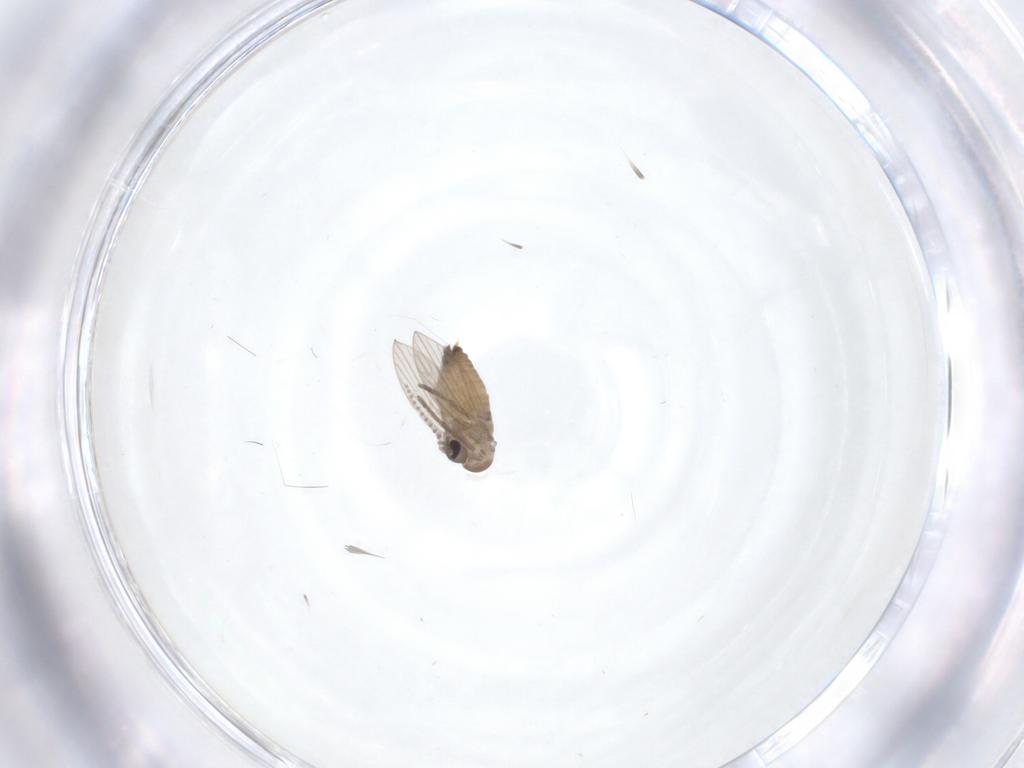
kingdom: Animalia
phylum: Arthropoda
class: Insecta
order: Diptera
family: Psychodidae
